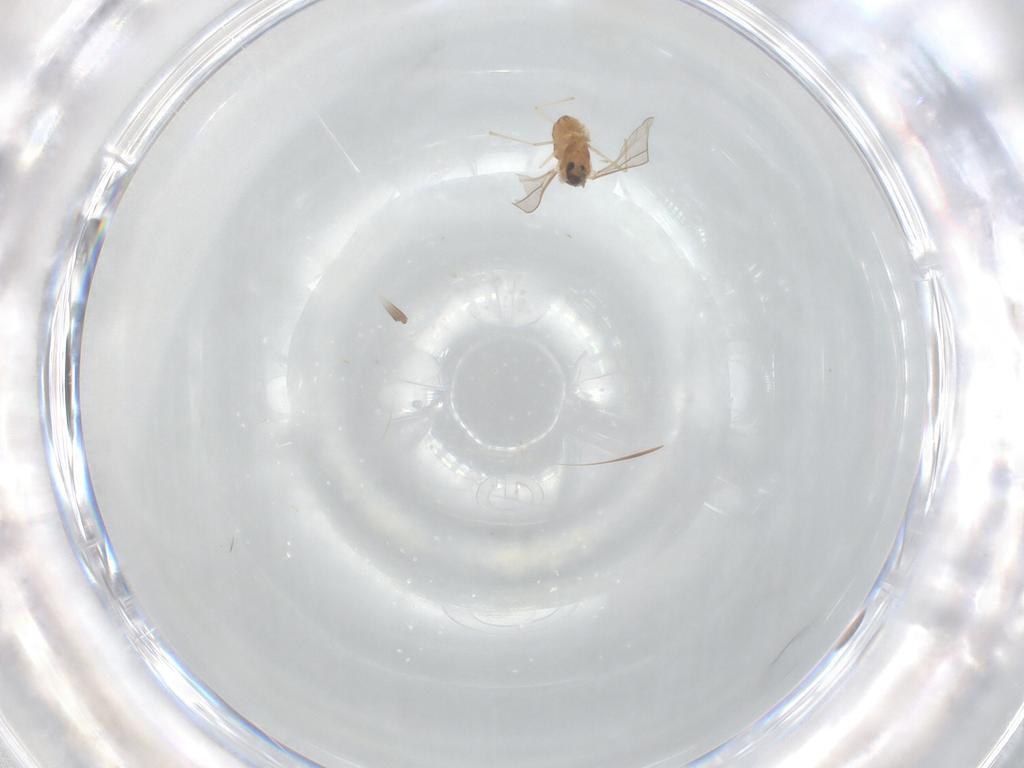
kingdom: Animalia
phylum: Arthropoda
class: Insecta
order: Diptera
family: Cecidomyiidae
